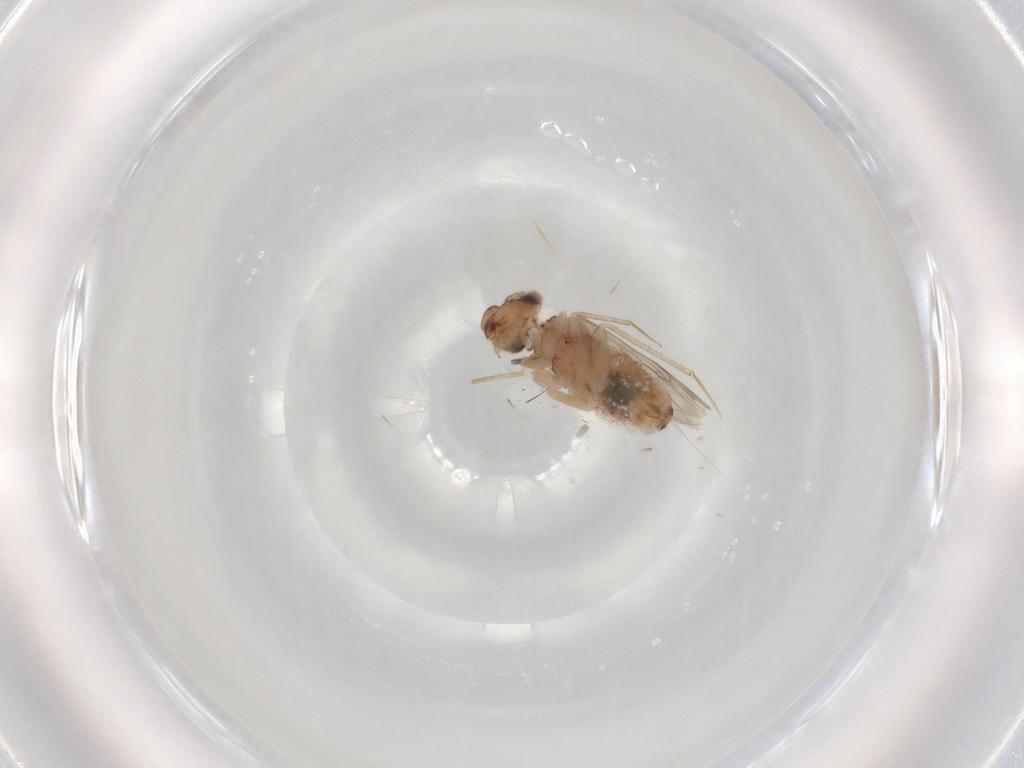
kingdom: Animalia
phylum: Arthropoda
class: Insecta
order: Psocodea
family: Lepidopsocidae
